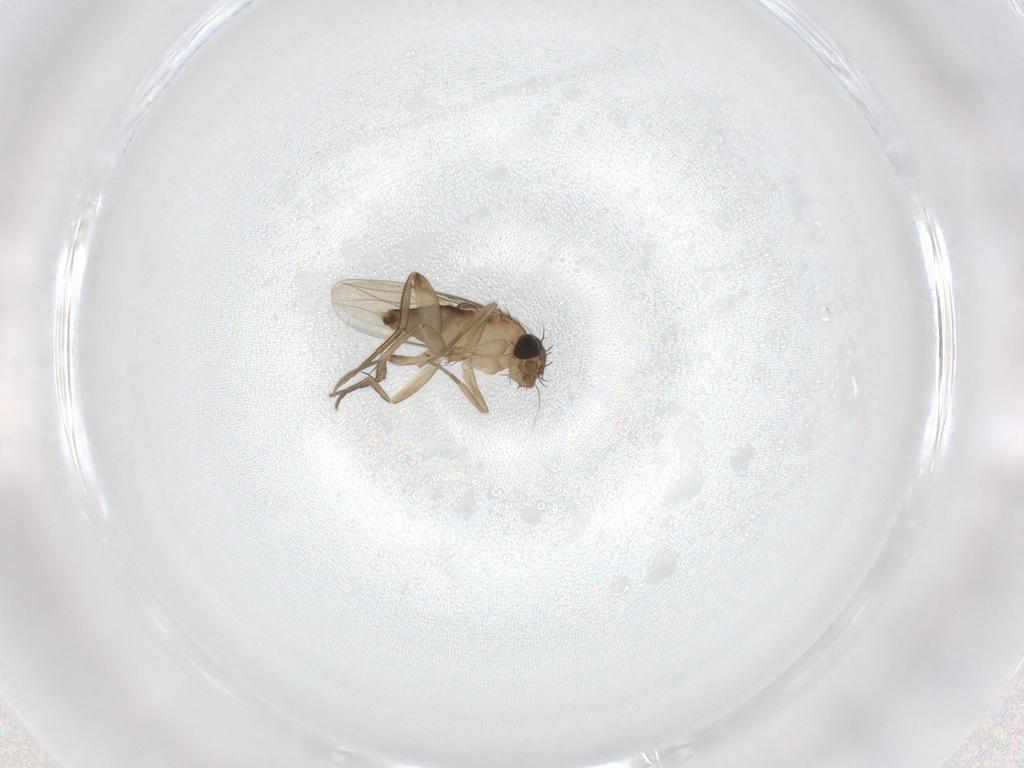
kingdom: Animalia
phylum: Arthropoda
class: Insecta
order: Diptera
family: Phoridae
